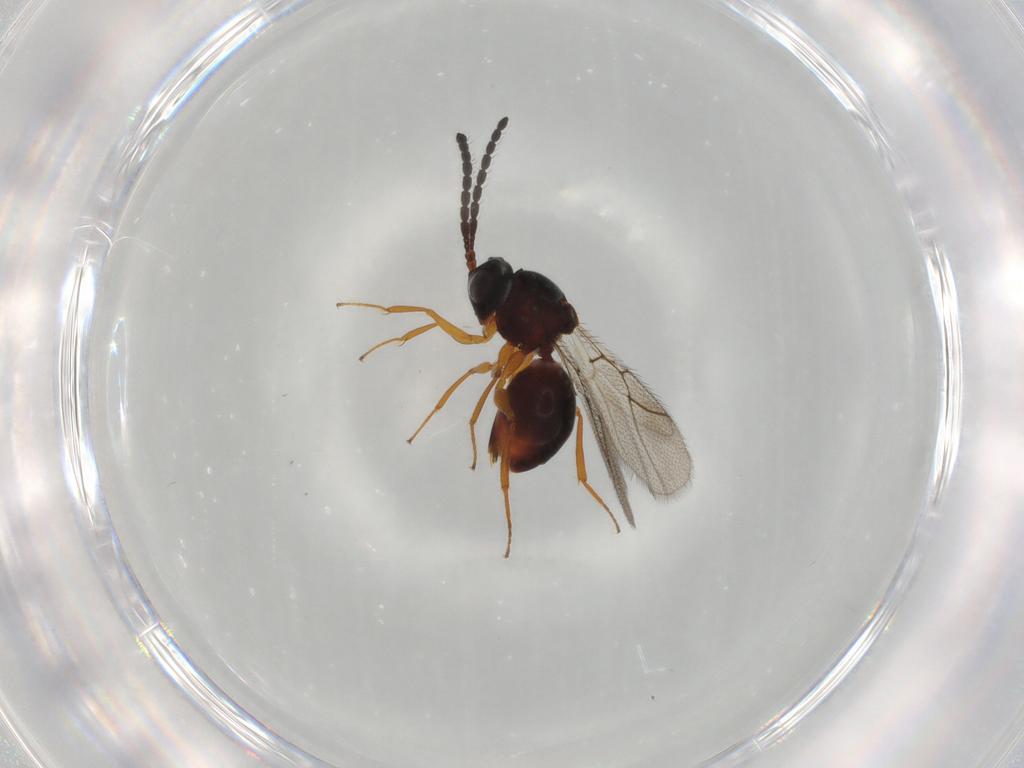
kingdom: Animalia
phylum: Arthropoda
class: Insecta
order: Hymenoptera
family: Figitidae
